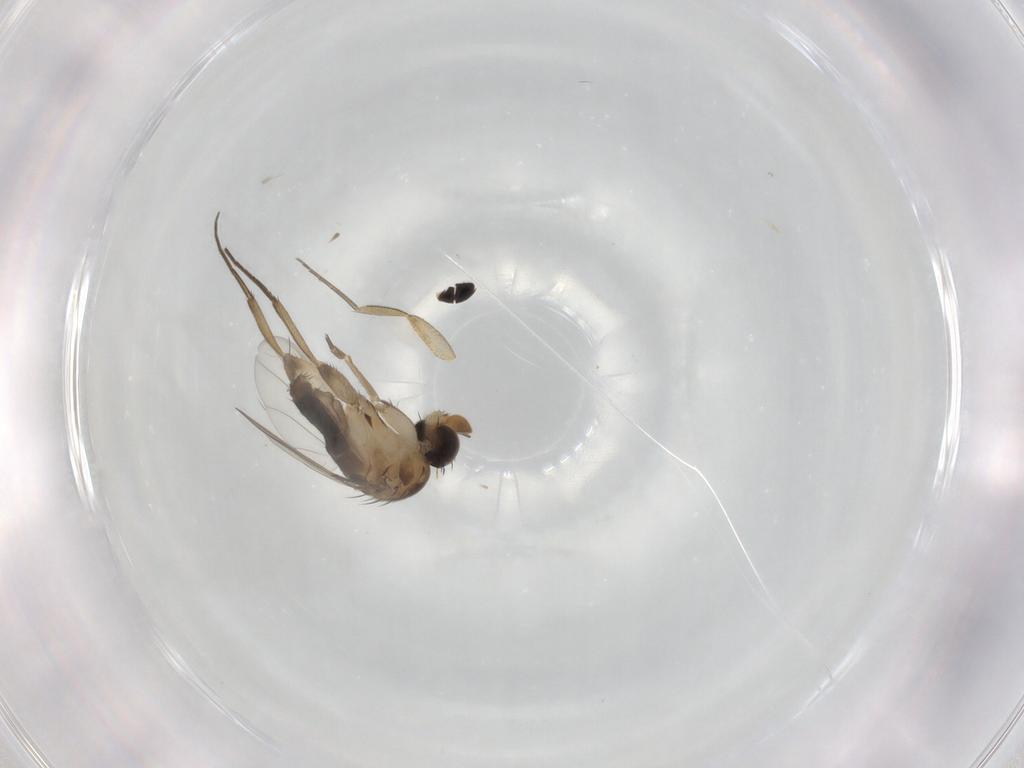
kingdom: Animalia
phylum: Arthropoda
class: Insecta
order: Diptera
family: Phoridae
